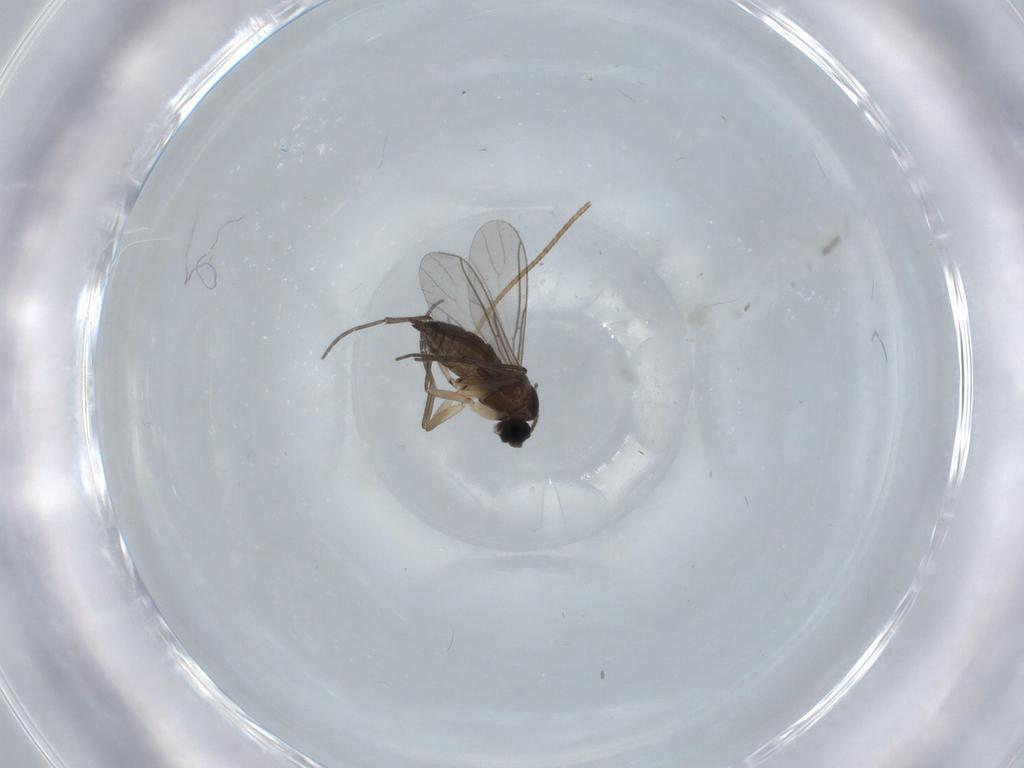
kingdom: Animalia
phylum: Arthropoda
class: Insecta
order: Diptera
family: Sciaridae
